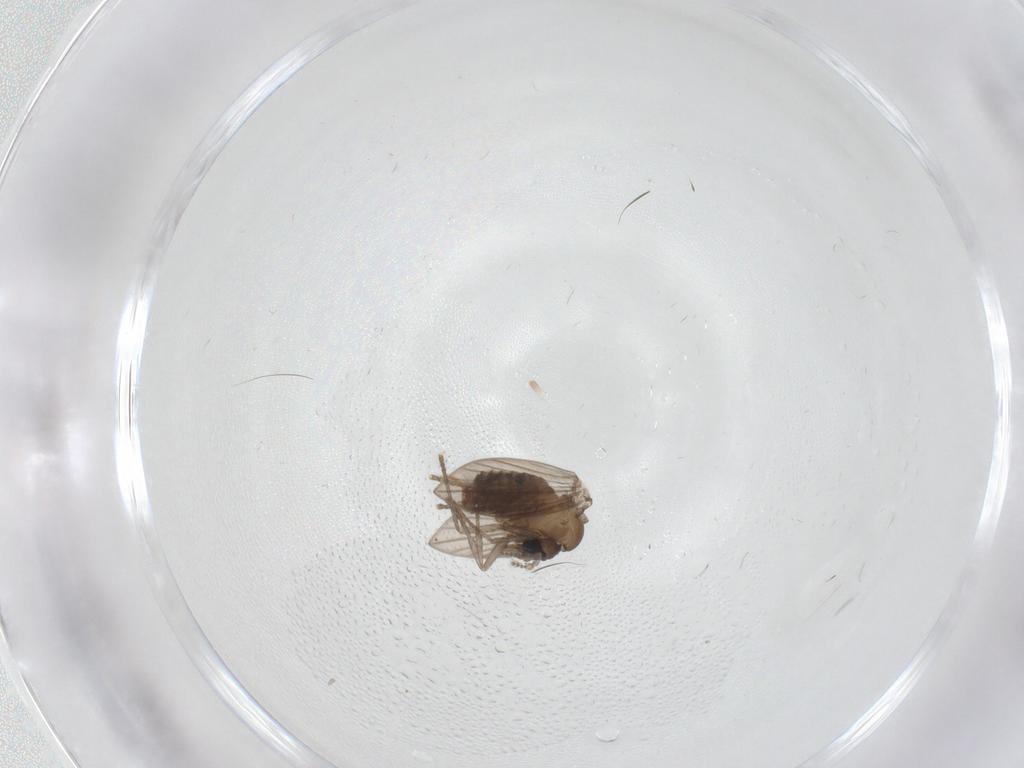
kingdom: Animalia
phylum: Arthropoda
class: Insecta
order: Diptera
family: Psychodidae
